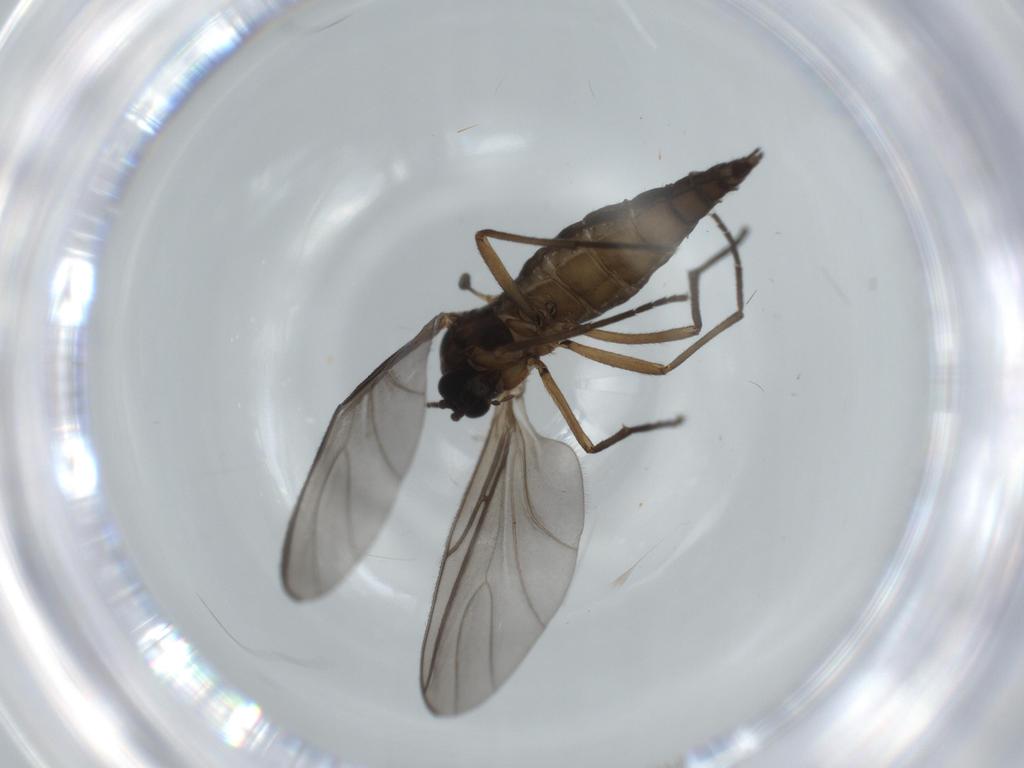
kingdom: Animalia
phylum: Arthropoda
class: Insecta
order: Diptera
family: Sciaridae
